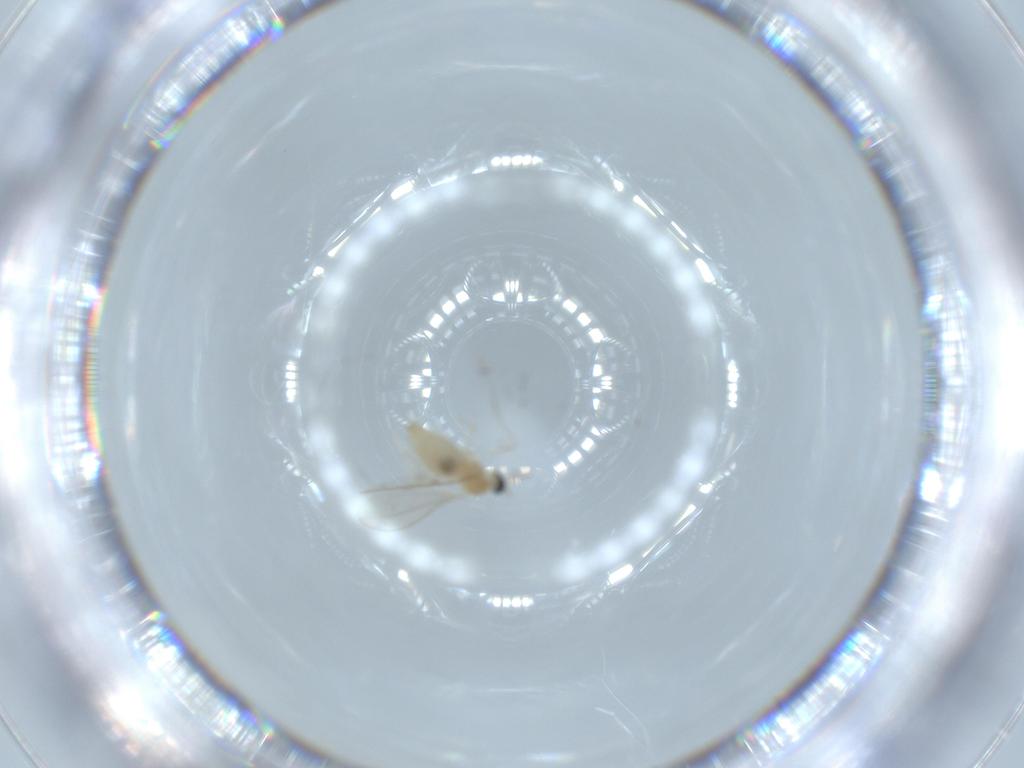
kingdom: Animalia
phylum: Arthropoda
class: Insecta
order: Diptera
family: Cecidomyiidae
